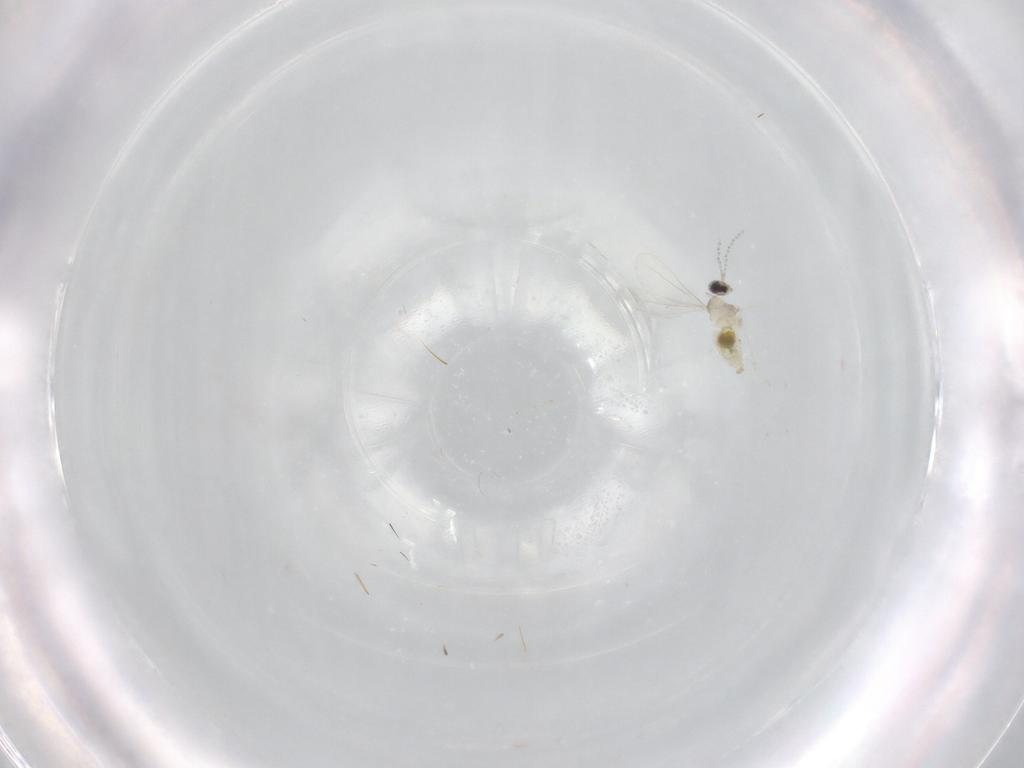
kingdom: Animalia
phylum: Arthropoda
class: Insecta
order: Diptera
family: Cecidomyiidae
